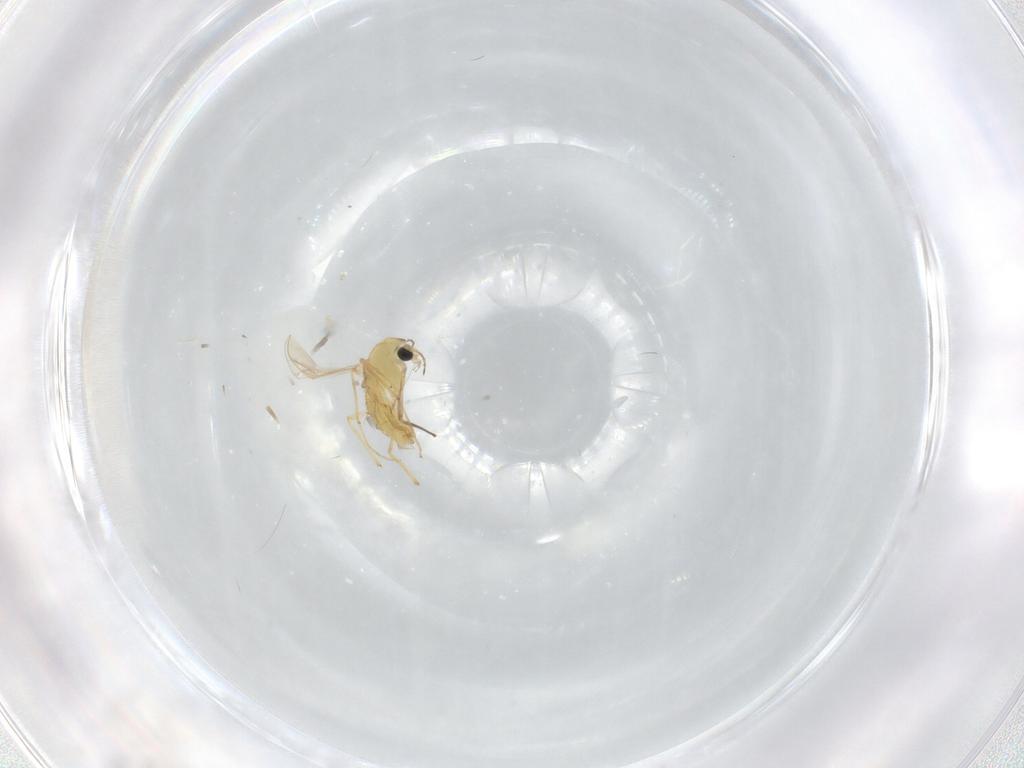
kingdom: Animalia
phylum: Arthropoda
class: Insecta
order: Diptera
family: Chironomidae
